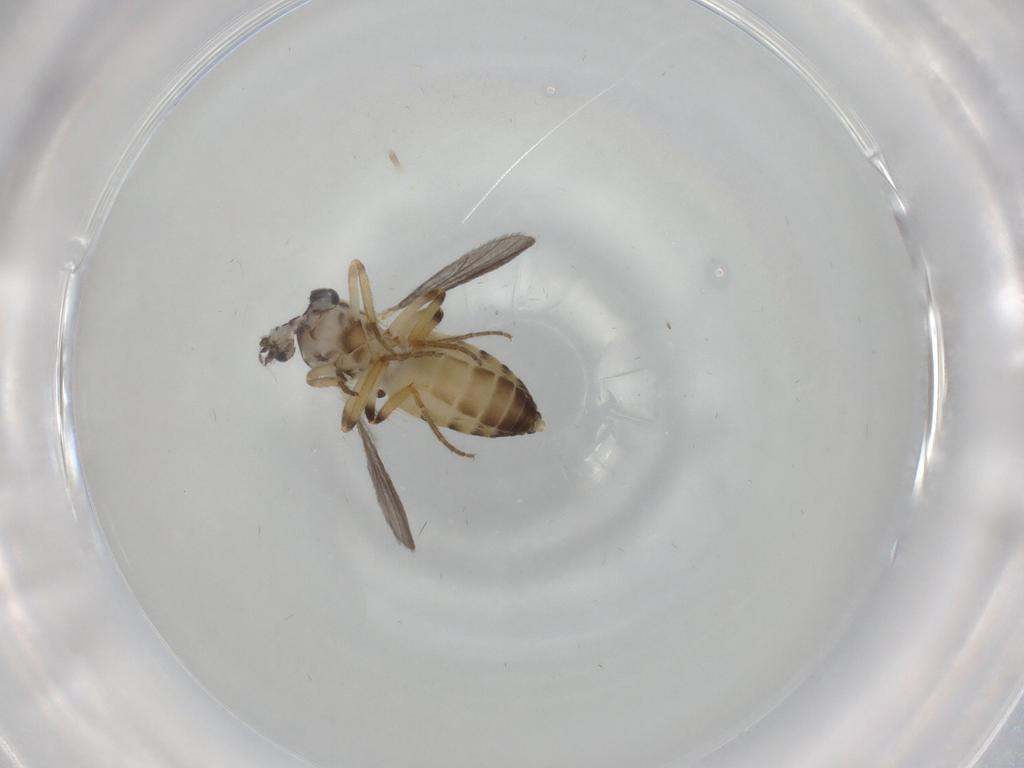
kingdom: Animalia
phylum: Arthropoda
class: Insecta
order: Diptera
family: Ceratopogonidae
